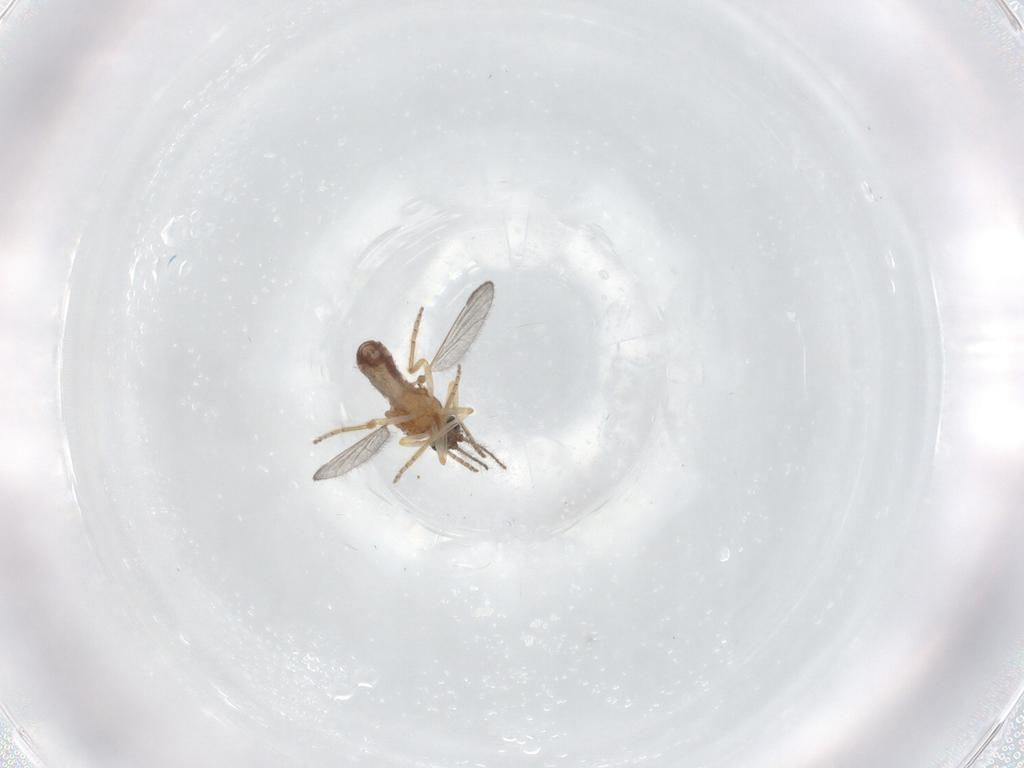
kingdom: Animalia
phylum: Arthropoda
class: Insecta
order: Diptera
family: Ceratopogonidae
